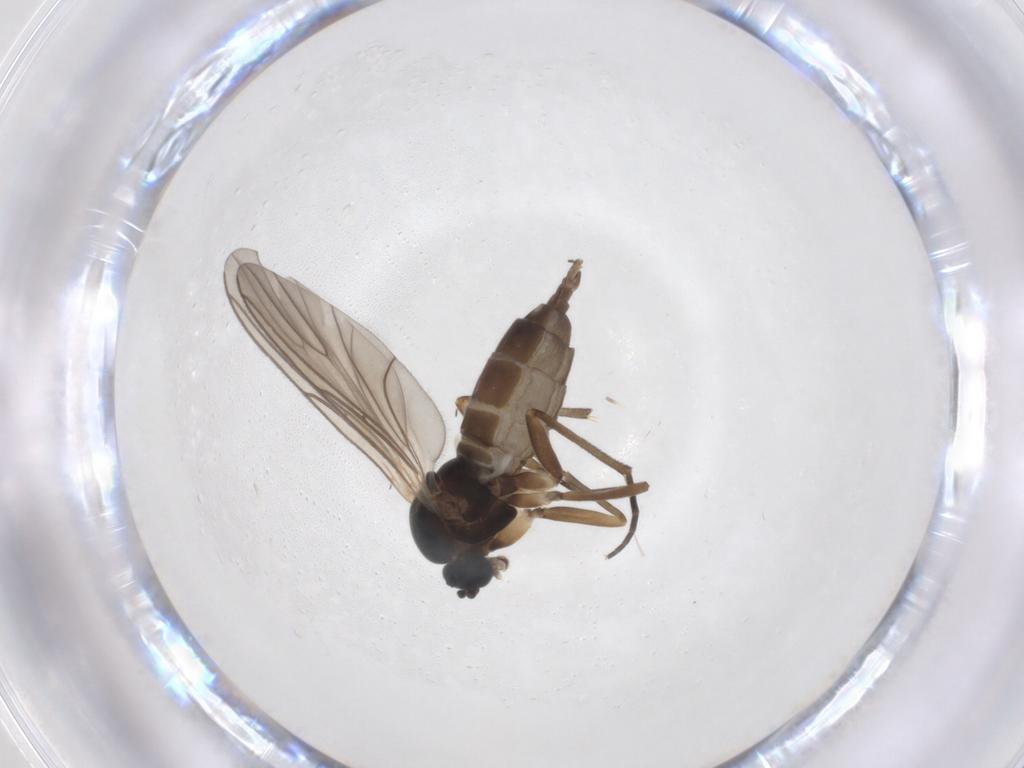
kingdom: Animalia
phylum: Arthropoda
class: Insecta
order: Diptera
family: Sciaridae
